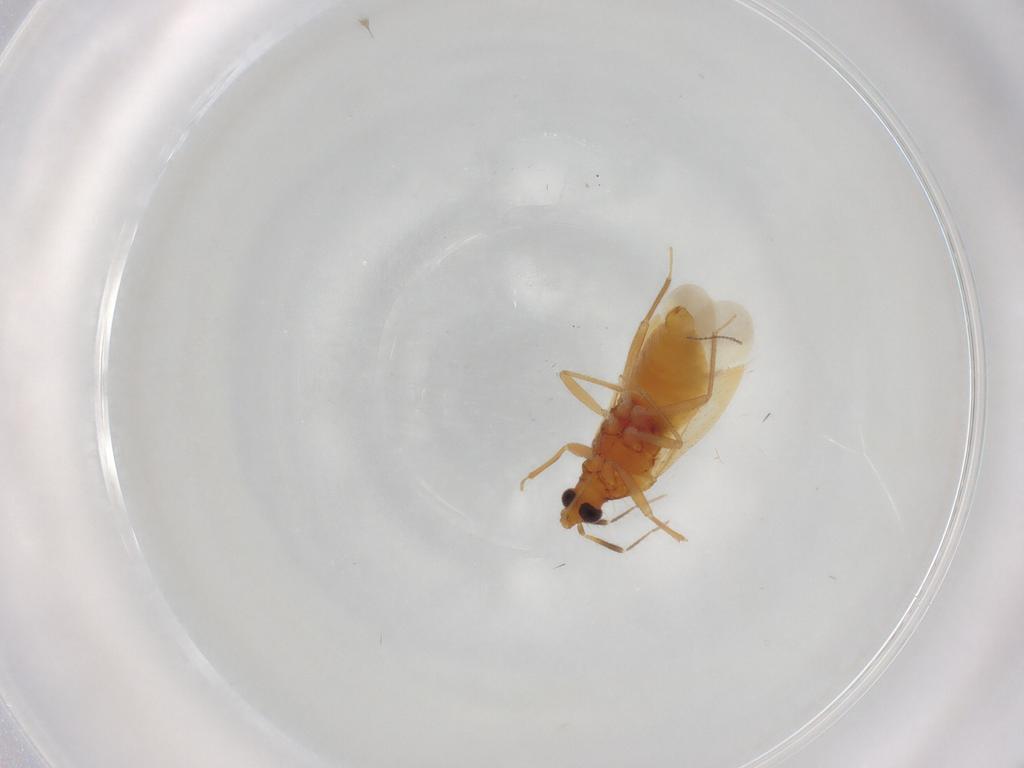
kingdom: Animalia
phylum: Arthropoda
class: Insecta
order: Hemiptera
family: Anthocoridae
